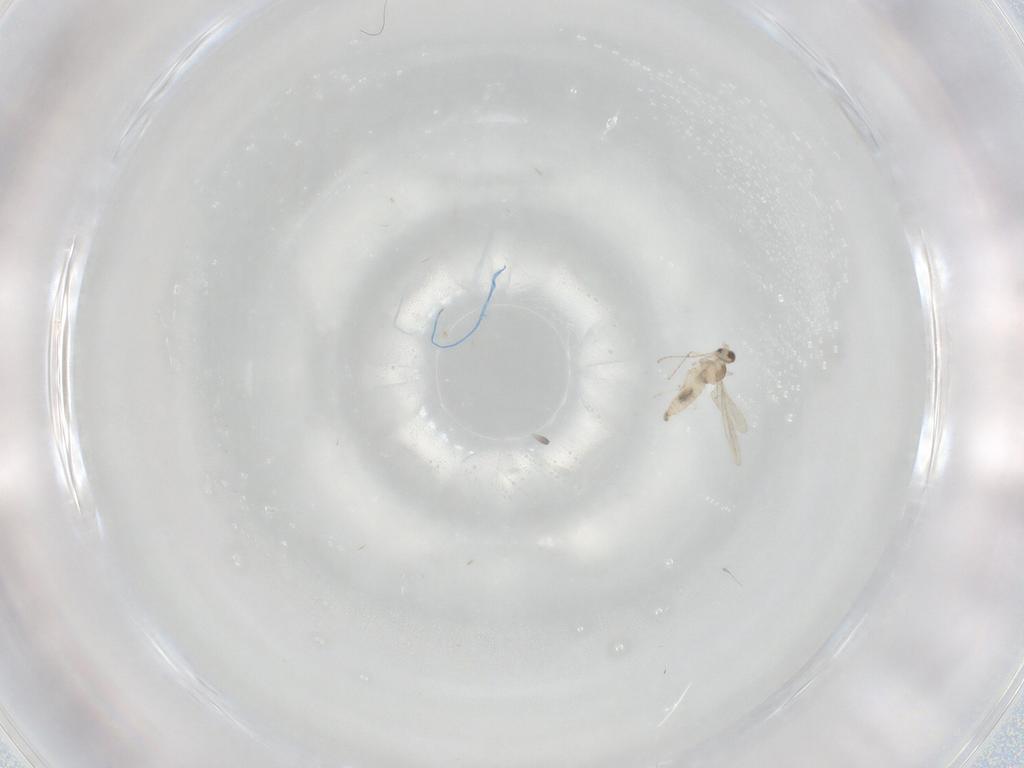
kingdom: Animalia
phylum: Arthropoda
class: Insecta
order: Diptera
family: Cecidomyiidae
